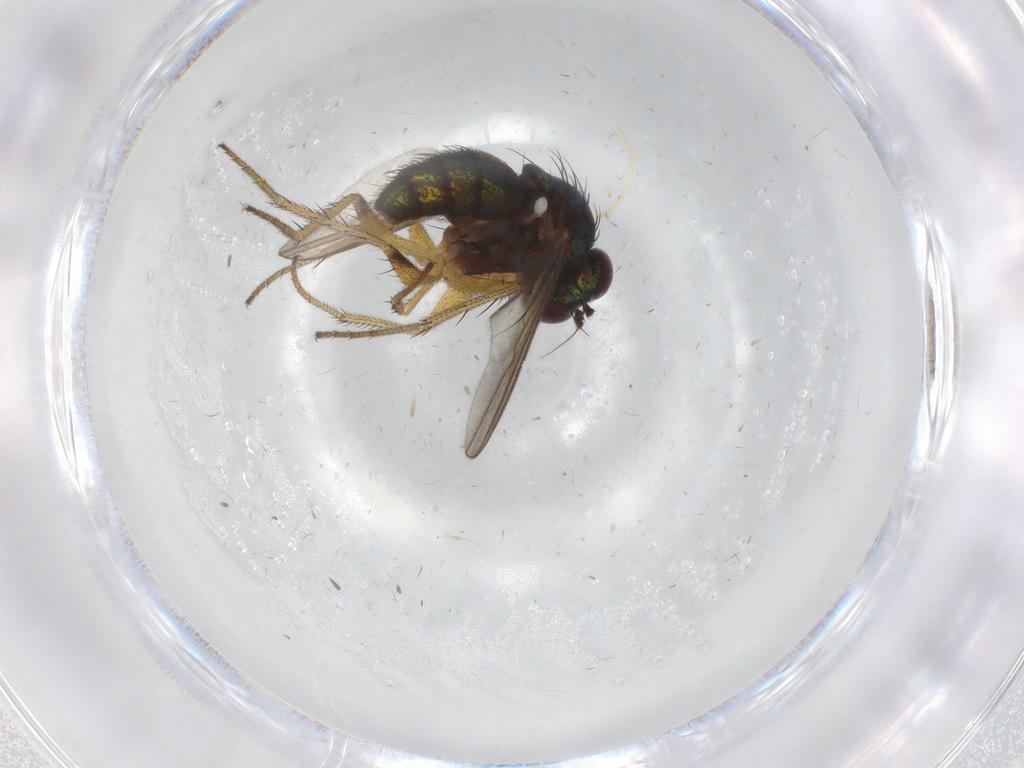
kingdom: Animalia
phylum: Arthropoda
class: Insecta
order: Diptera
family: Dolichopodidae
